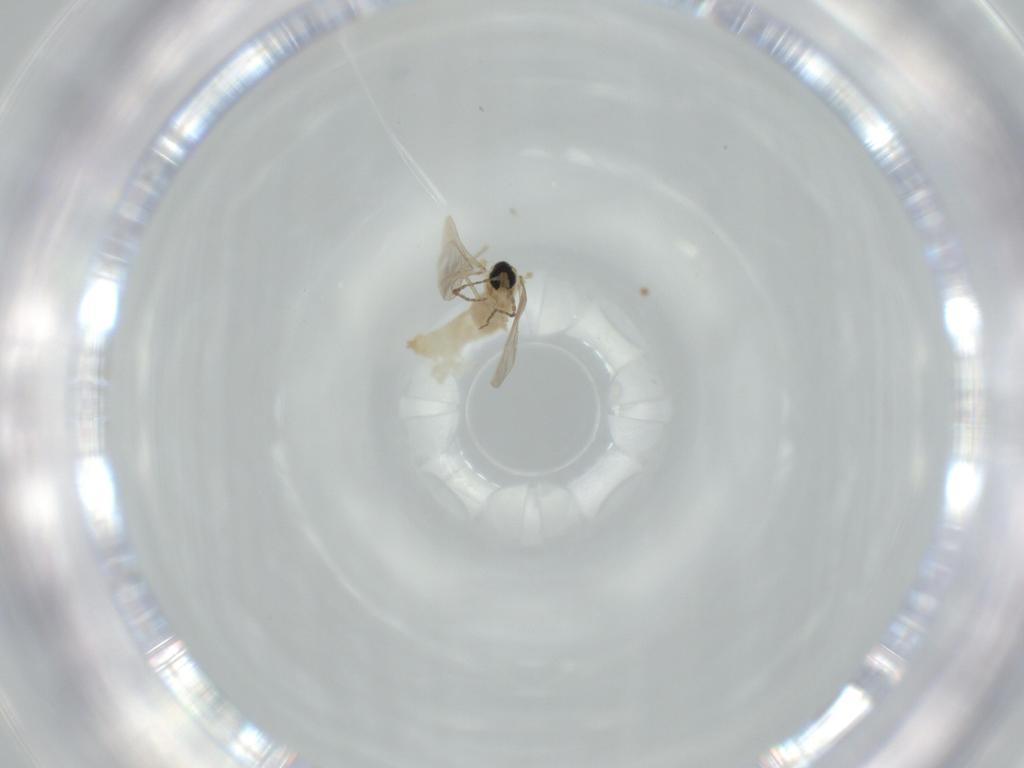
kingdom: Animalia
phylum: Arthropoda
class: Insecta
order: Diptera
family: Cecidomyiidae
